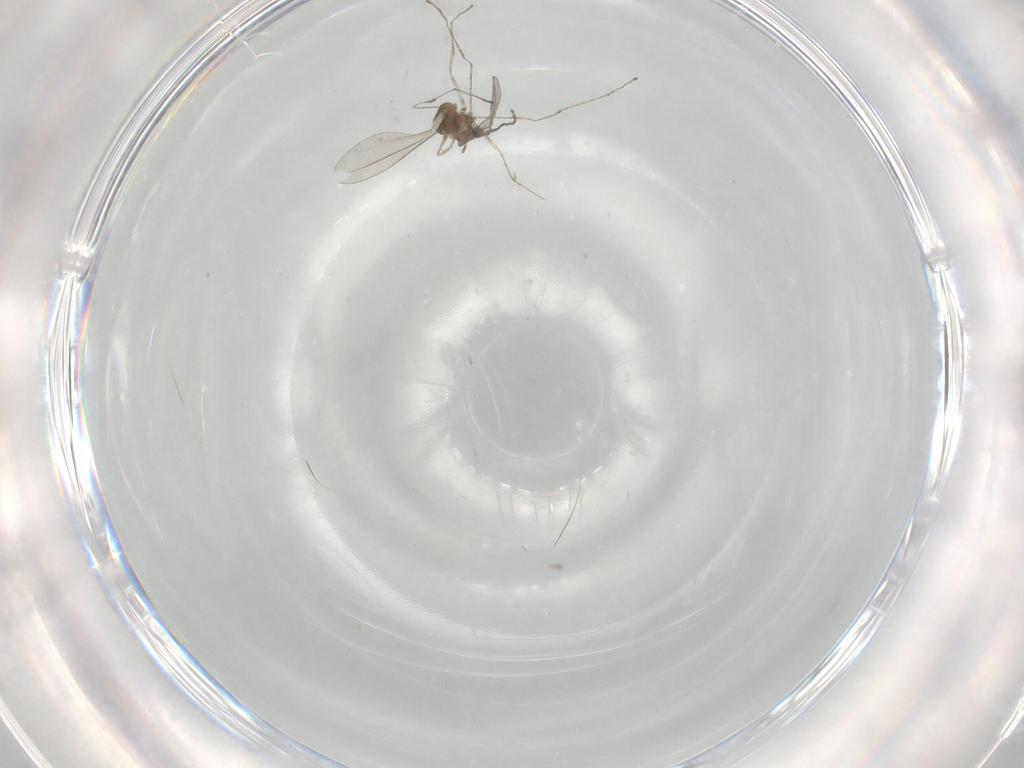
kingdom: Animalia
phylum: Arthropoda
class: Insecta
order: Diptera
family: Cecidomyiidae
